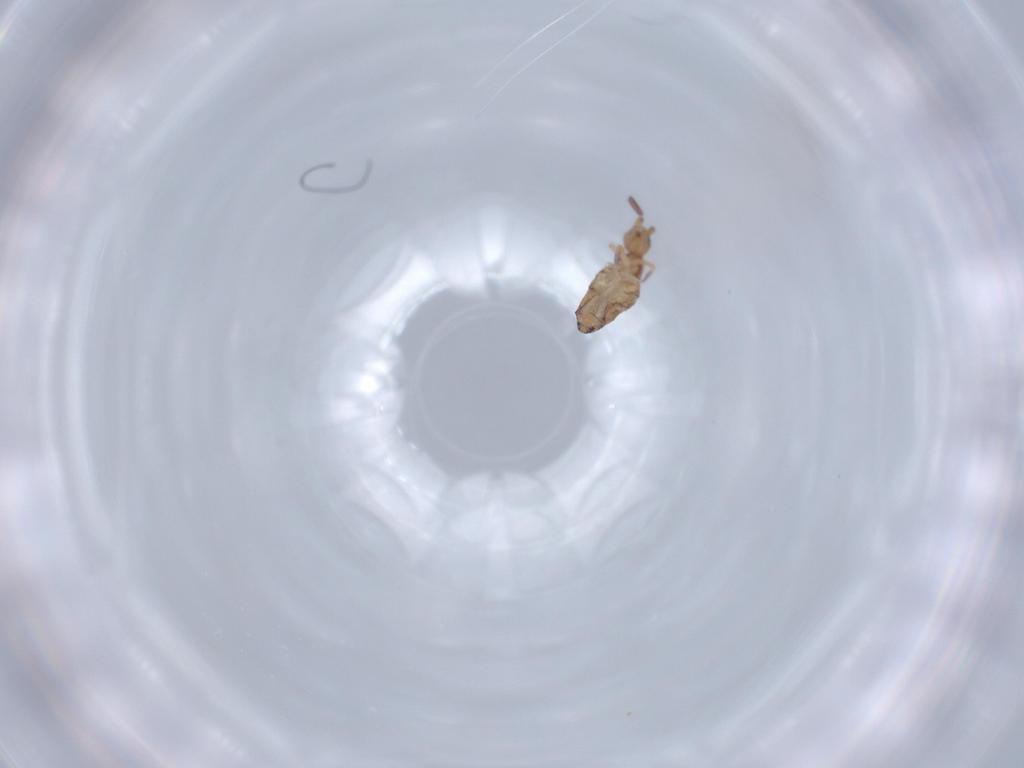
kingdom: Animalia
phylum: Arthropoda
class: Collembola
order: Entomobryomorpha
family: Entomobryidae
